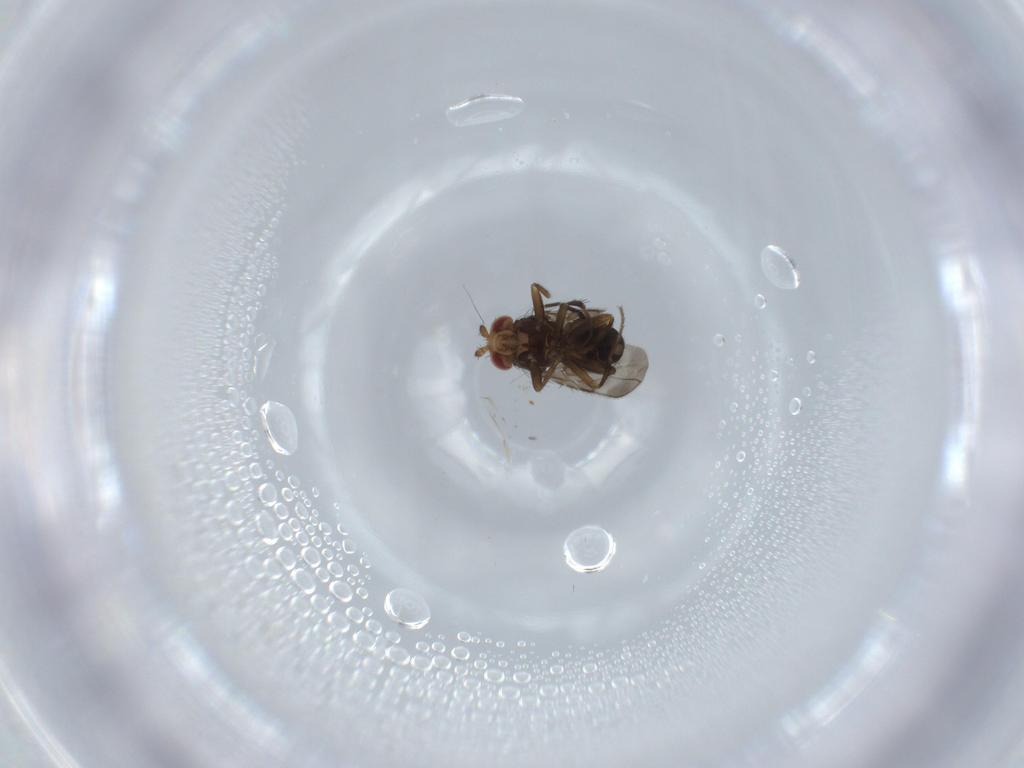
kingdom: Animalia
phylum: Arthropoda
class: Insecta
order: Diptera
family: Sphaeroceridae
